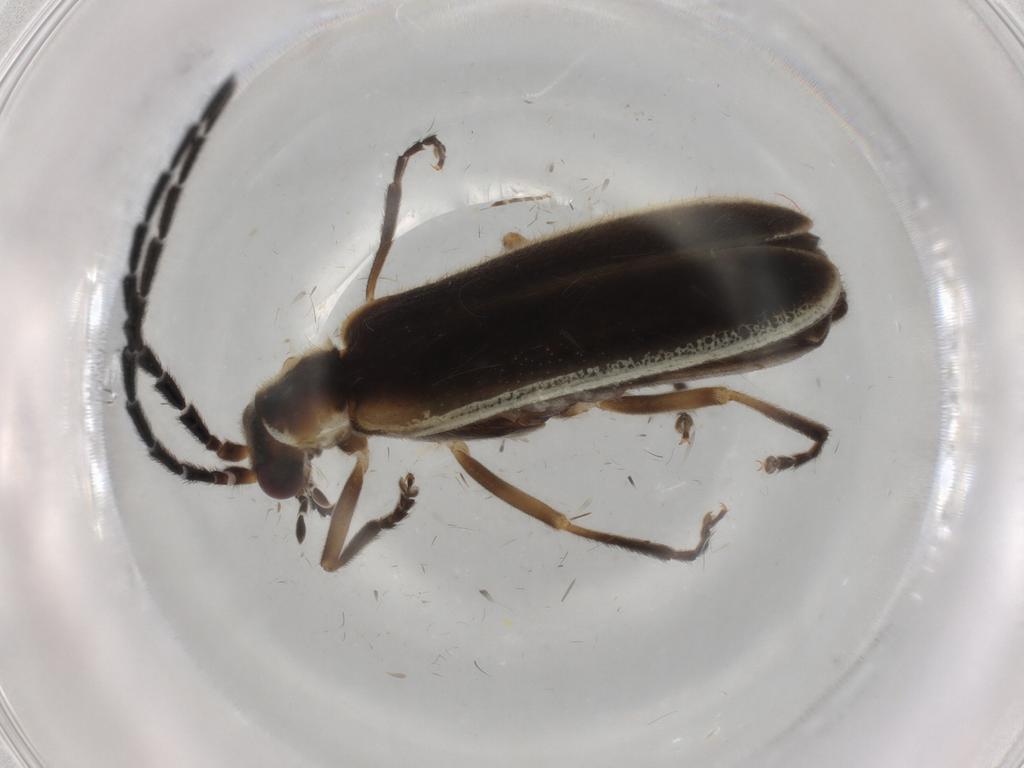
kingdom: Animalia
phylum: Arthropoda
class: Insecta
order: Coleoptera
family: Cantharidae
